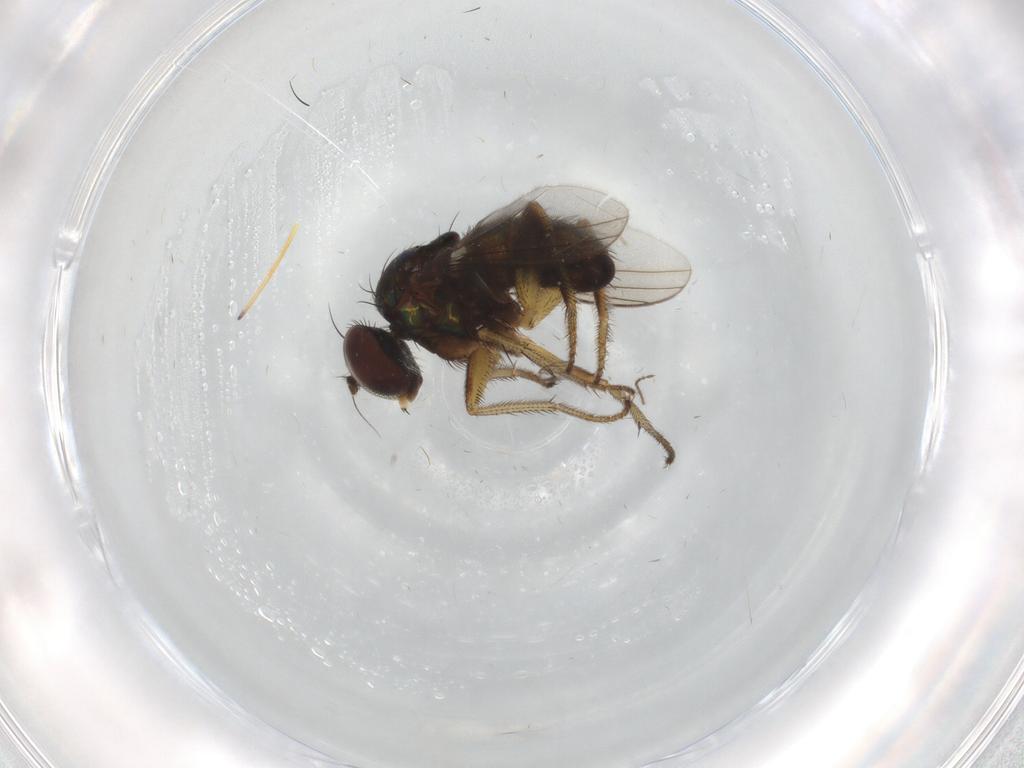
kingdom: Animalia
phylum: Arthropoda
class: Insecta
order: Diptera
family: Dolichopodidae
